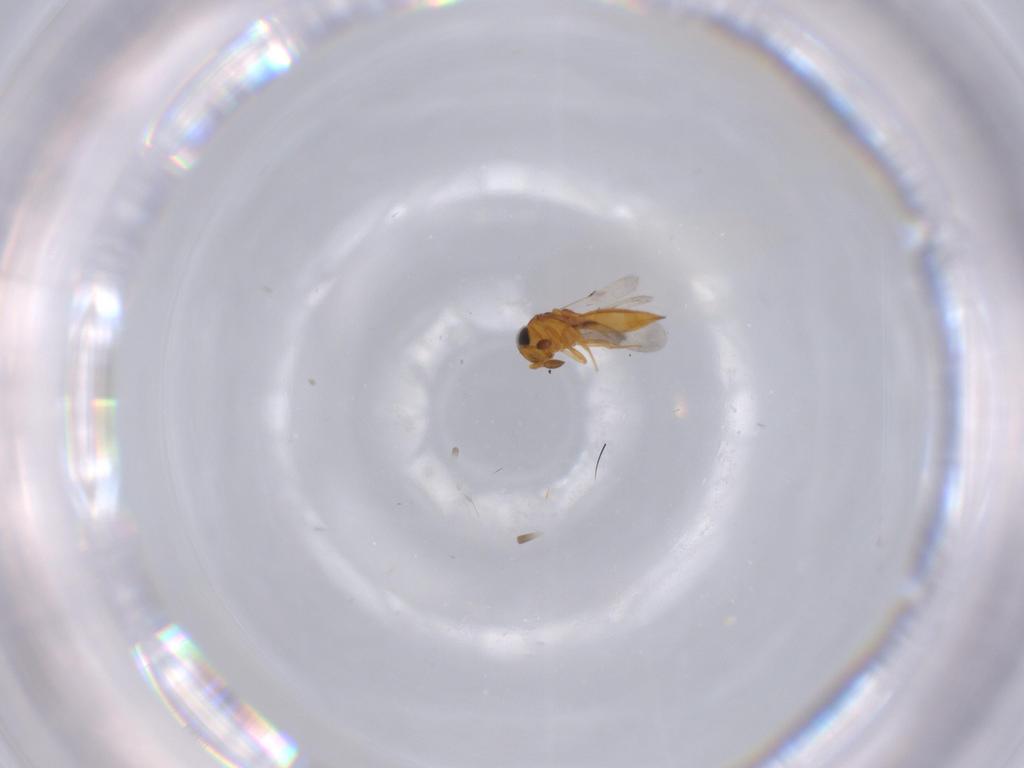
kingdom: Animalia
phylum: Arthropoda
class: Insecta
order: Hymenoptera
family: Scelionidae
